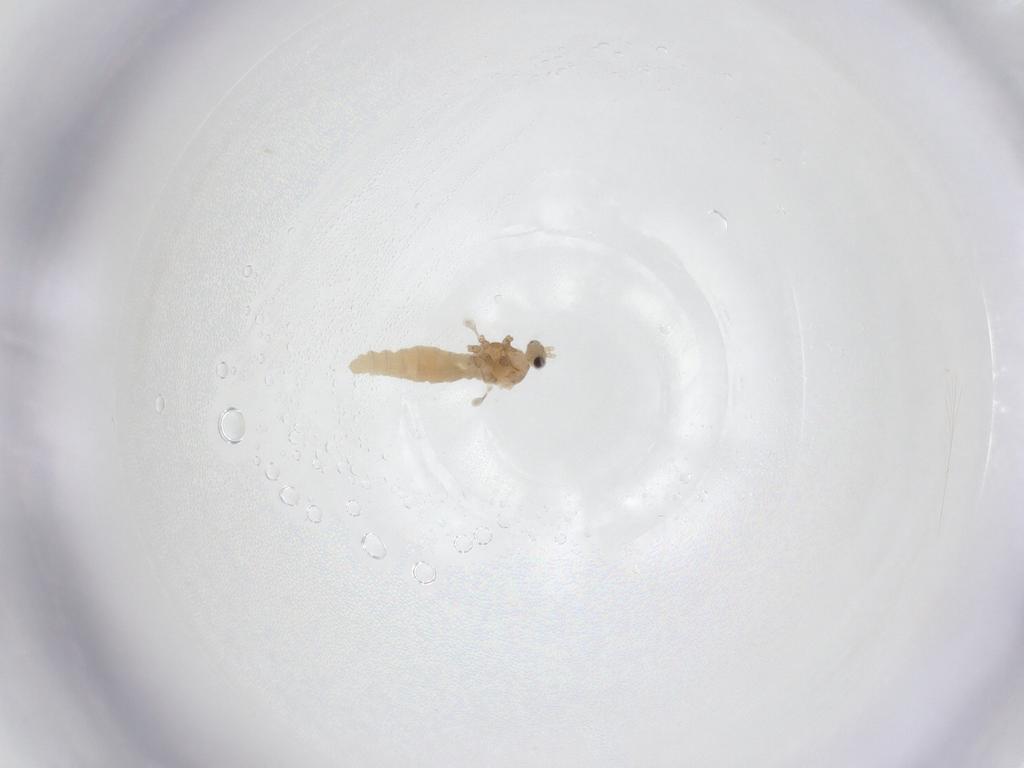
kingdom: Animalia
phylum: Arthropoda
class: Insecta
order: Diptera
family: Cecidomyiidae
